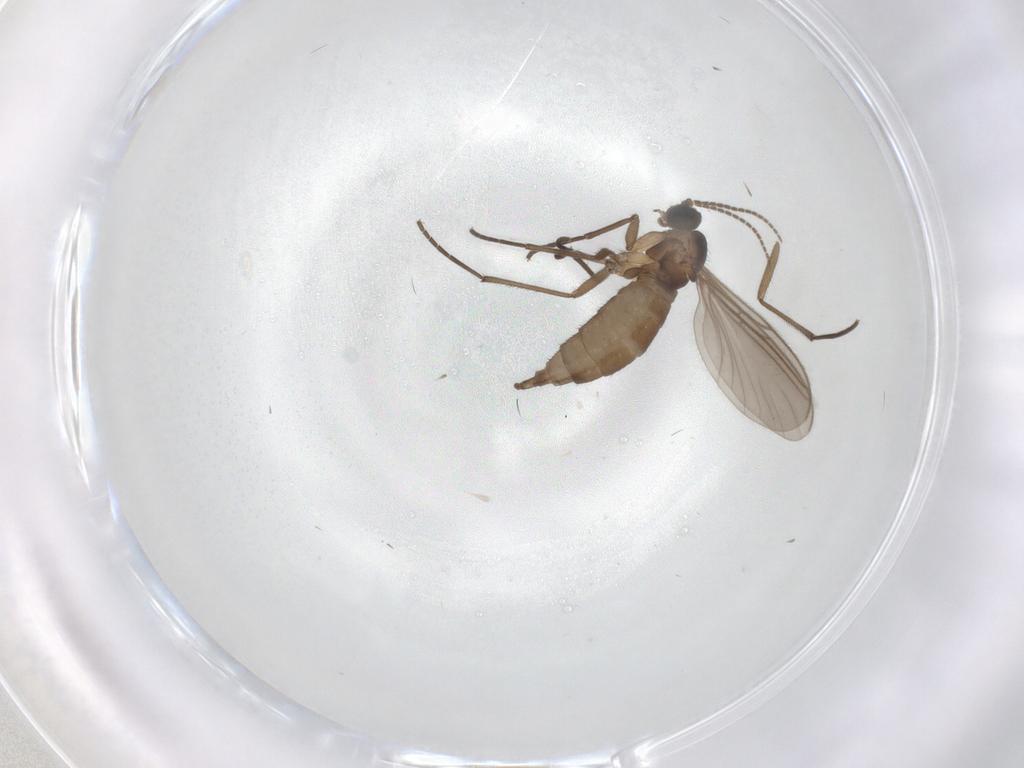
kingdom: Animalia
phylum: Arthropoda
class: Insecta
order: Diptera
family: Sciaridae
